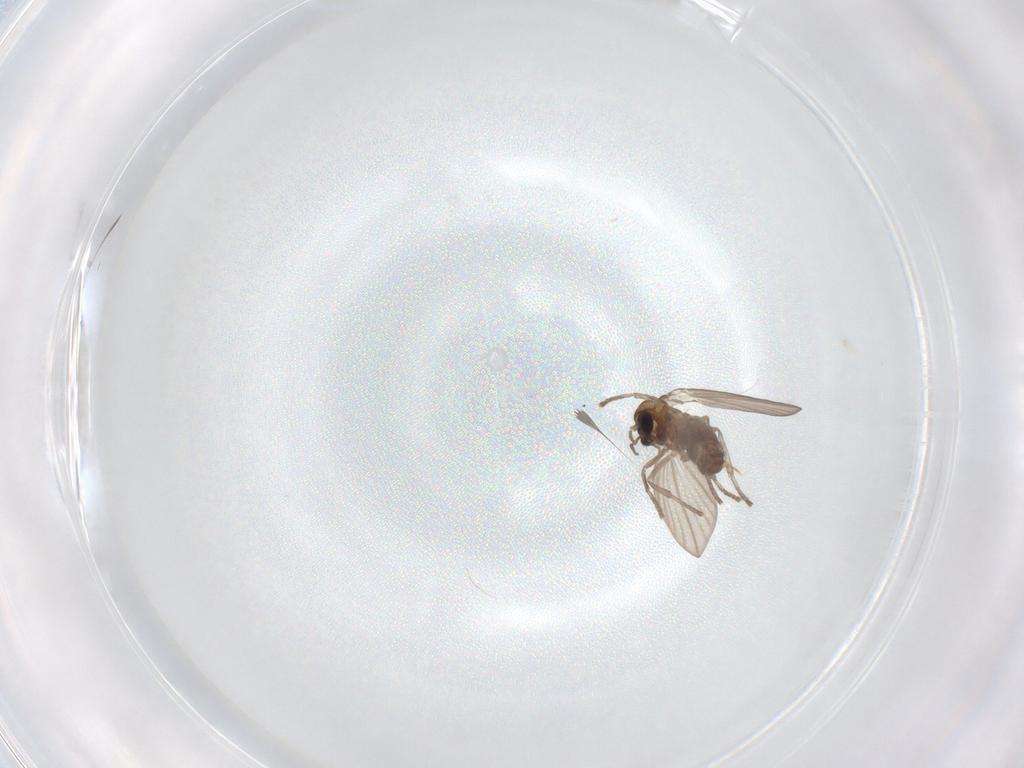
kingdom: Animalia
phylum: Arthropoda
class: Insecta
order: Diptera
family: Psychodidae
